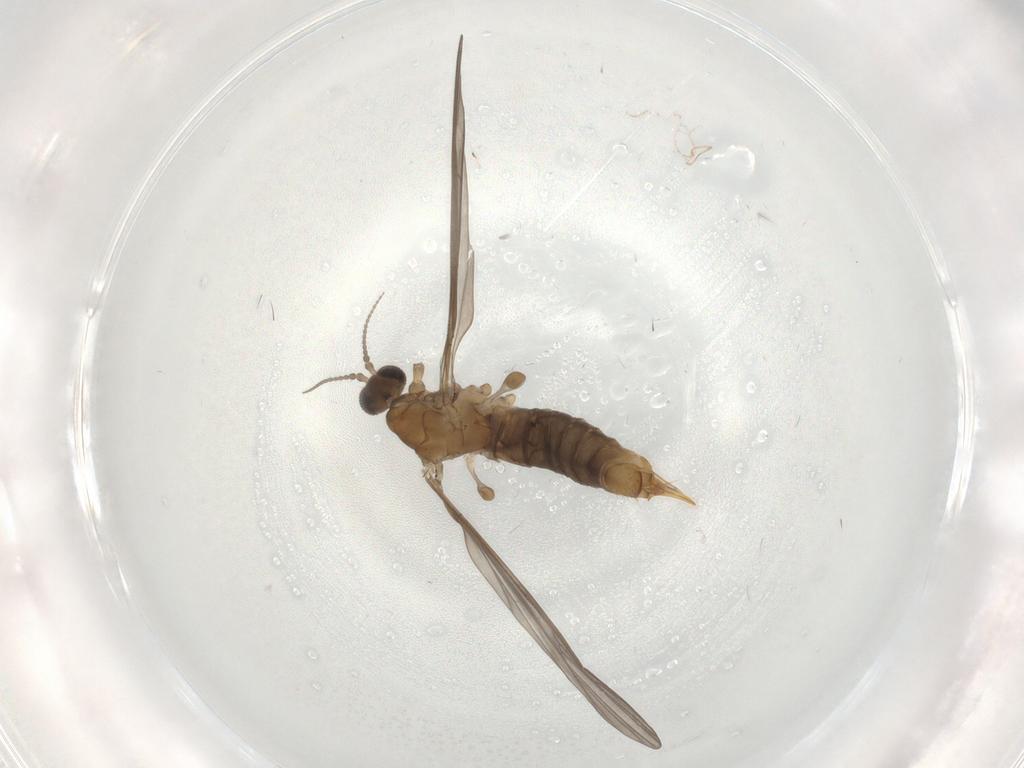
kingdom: Animalia
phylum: Arthropoda
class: Insecta
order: Diptera
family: Limoniidae
